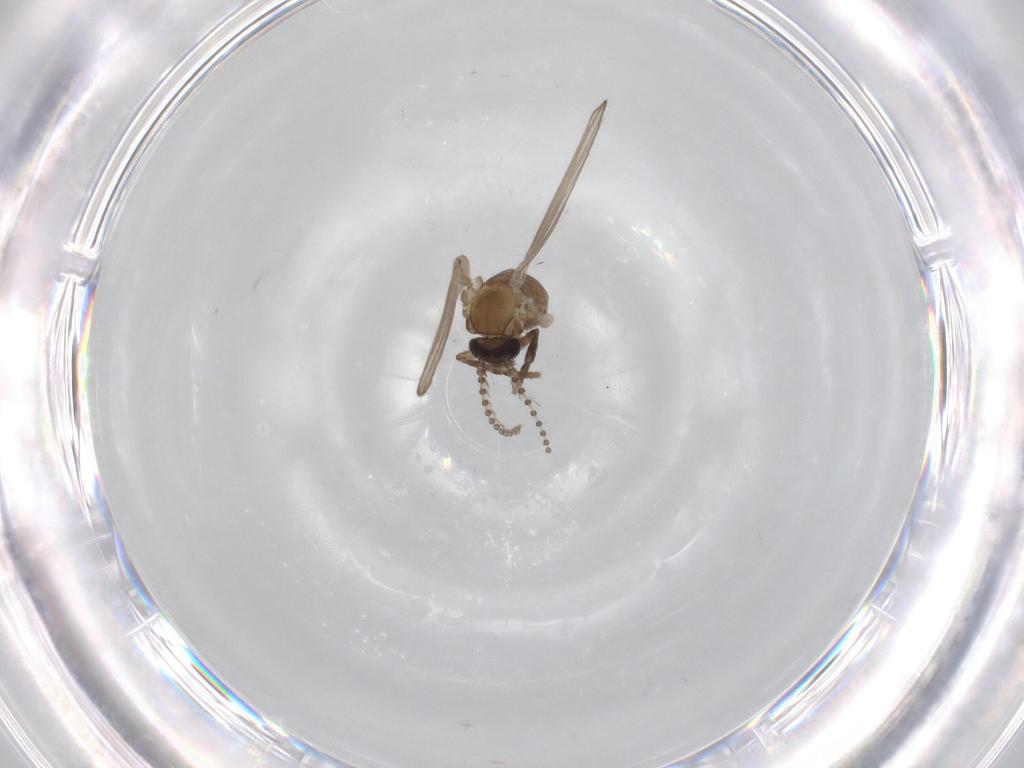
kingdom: Animalia
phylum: Arthropoda
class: Insecta
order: Diptera
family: Psychodidae
